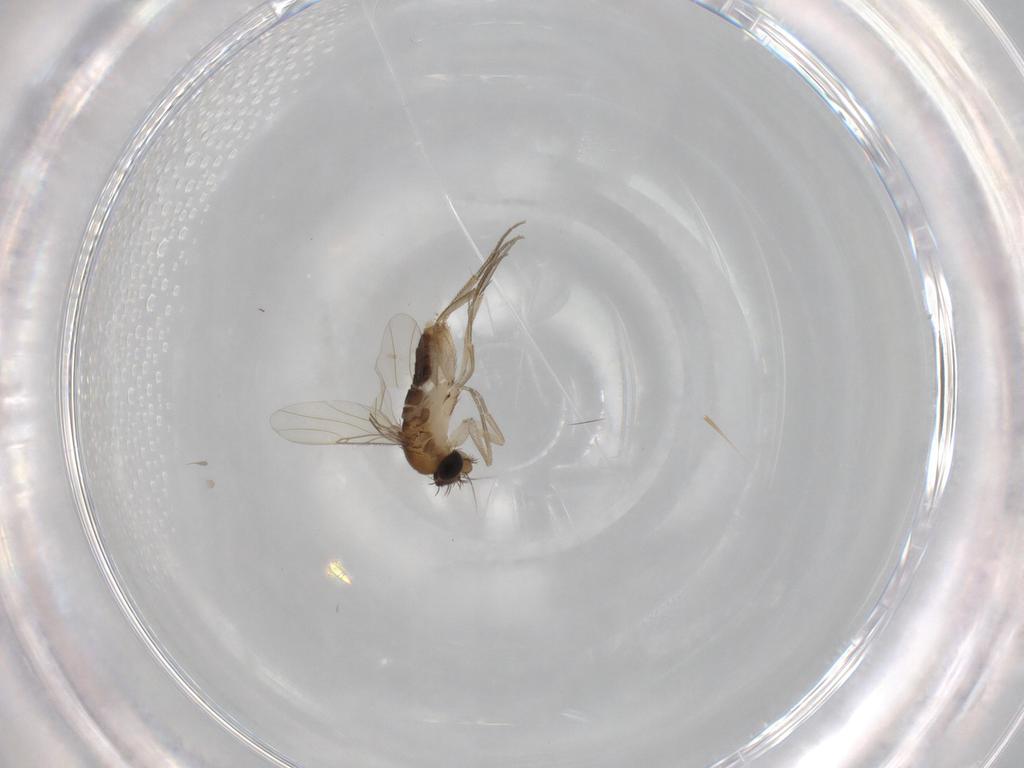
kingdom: Animalia
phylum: Arthropoda
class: Insecta
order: Diptera
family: Phoridae
